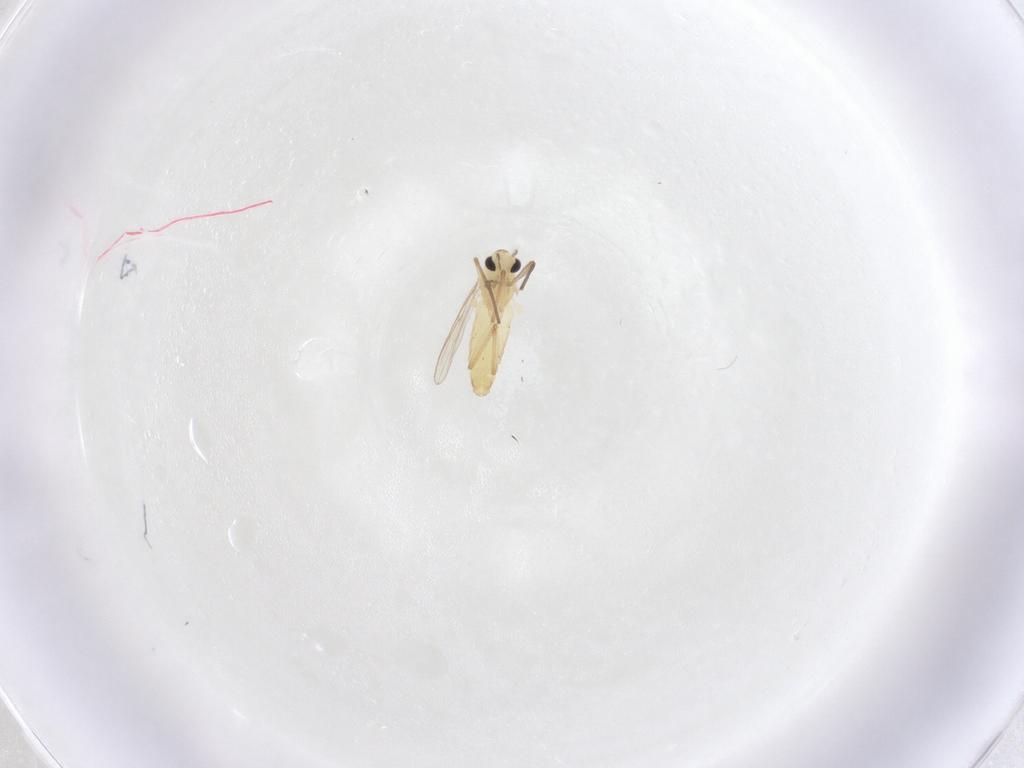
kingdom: Animalia
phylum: Arthropoda
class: Insecta
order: Diptera
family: Chironomidae
